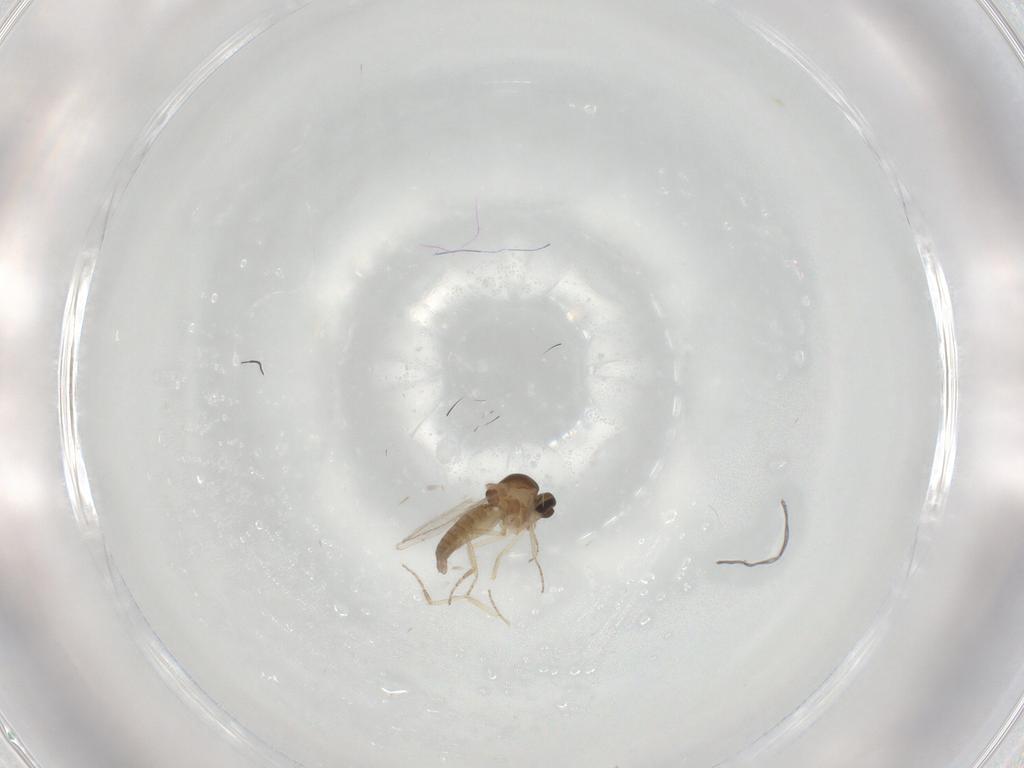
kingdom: Animalia
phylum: Arthropoda
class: Insecta
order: Diptera
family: Ceratopogonidae
